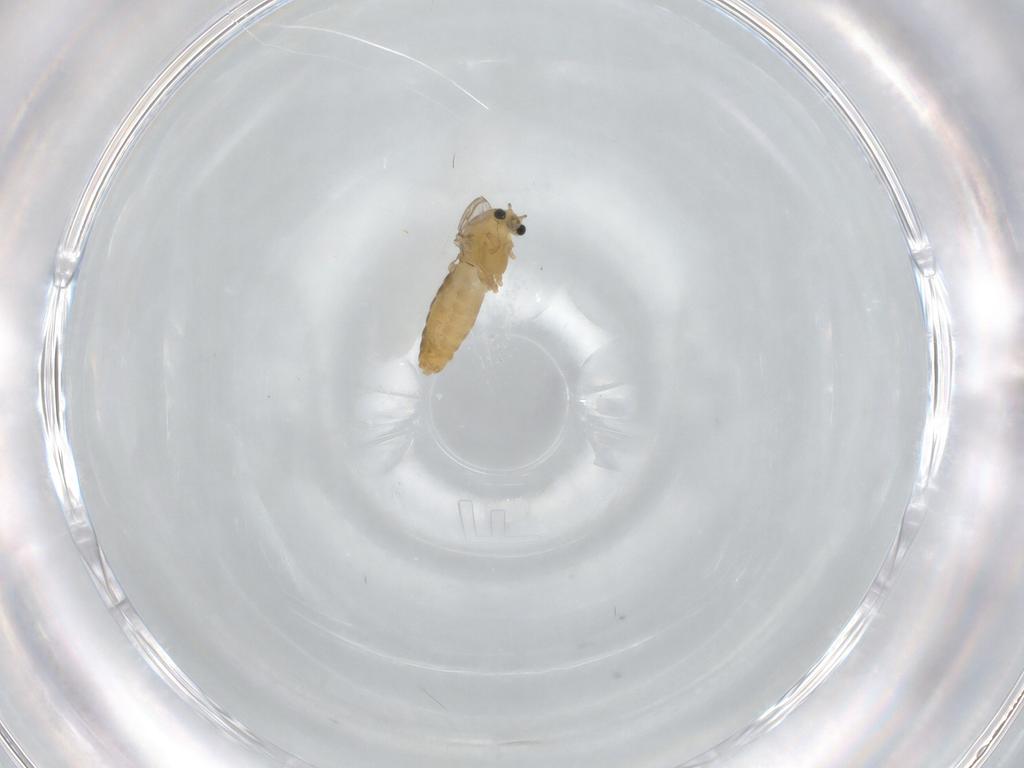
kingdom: Animalia
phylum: Arthropoda
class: Insecta
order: Diptera
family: Chironomidae
